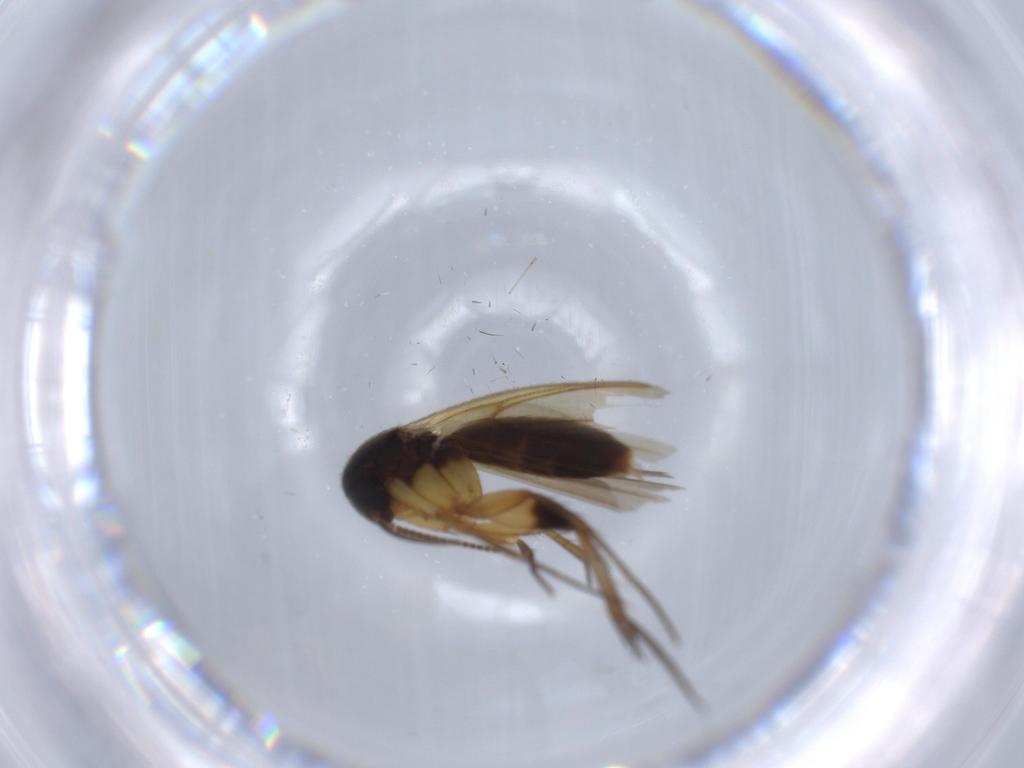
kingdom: Animalia
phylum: Arthropoda
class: Insecta
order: Diptera
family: Mycetophilidae
